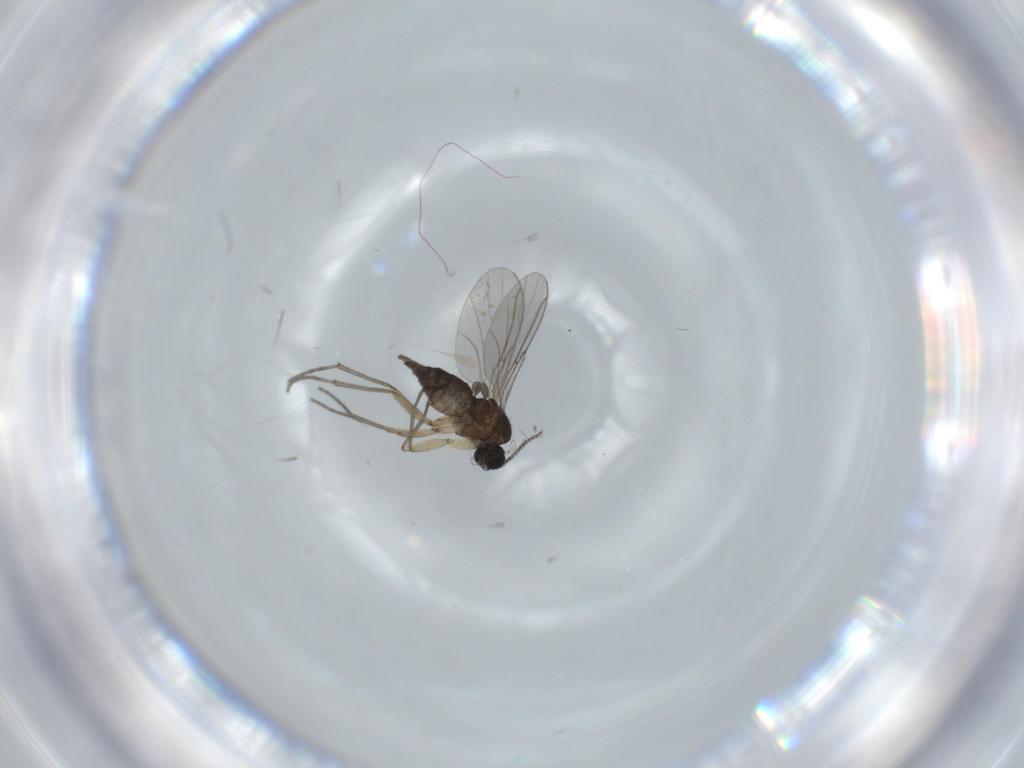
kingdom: Animalia
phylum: Arthropoda
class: Insecta
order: Diptera
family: Sciaridae
